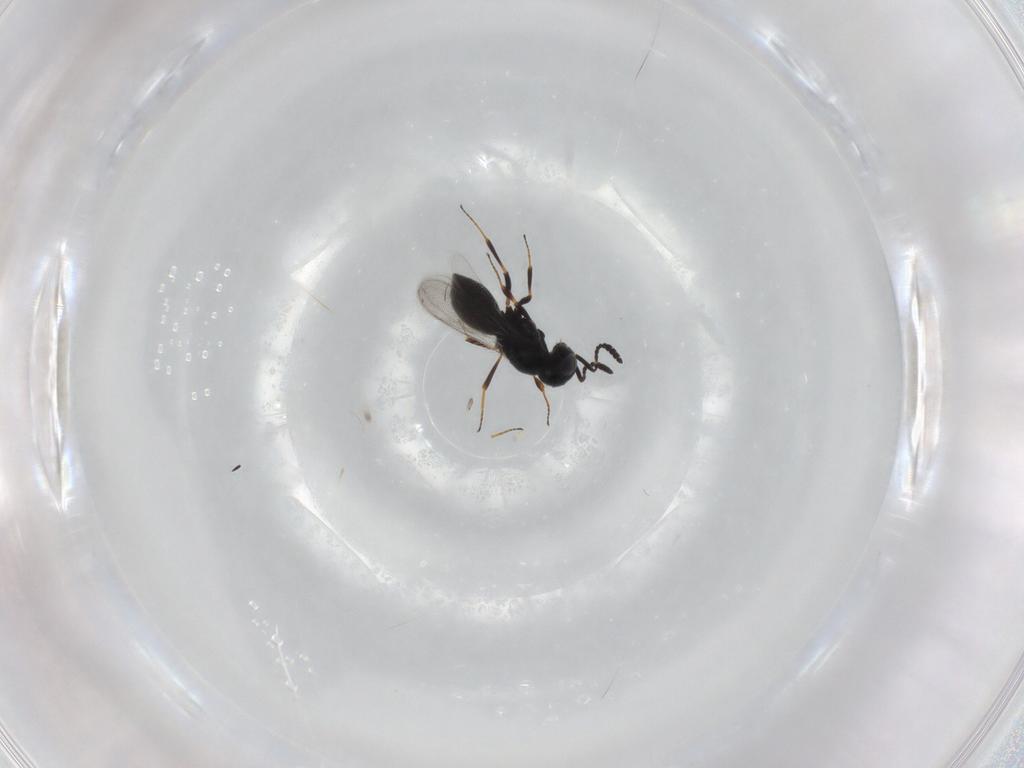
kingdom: Animalia
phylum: Arthropoda
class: Insecta
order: Hymenoptera
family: Scelionidae
